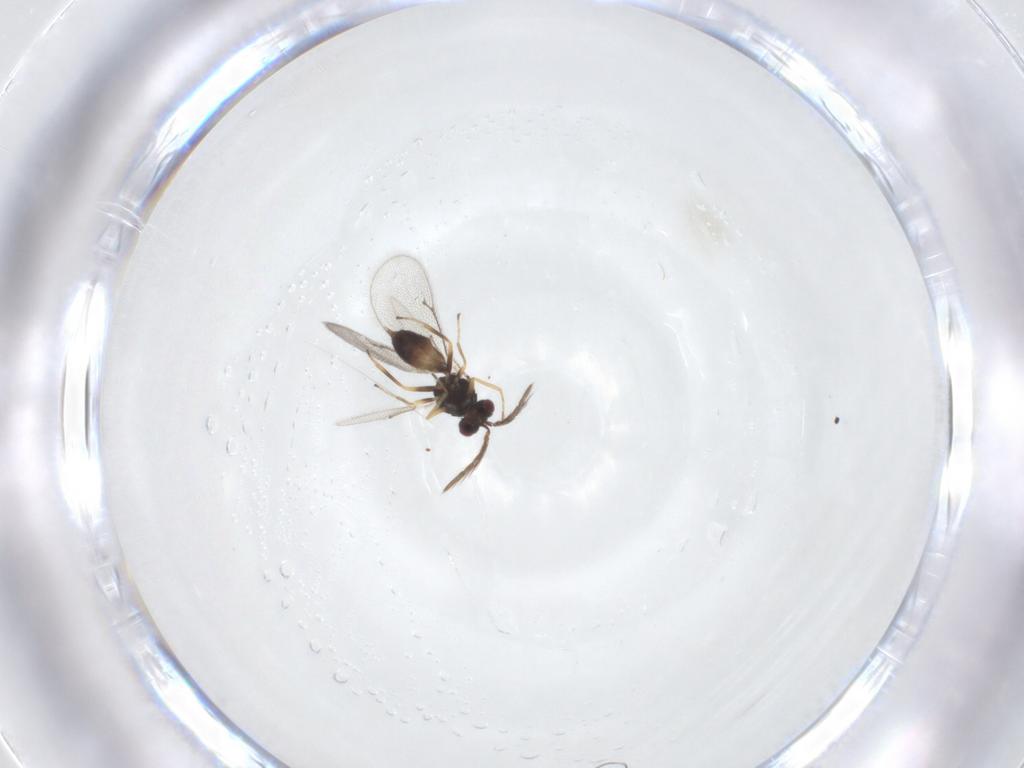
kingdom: Animalia
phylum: Arthropoda
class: Insecta
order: Hymenoptera
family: Eulophidae
